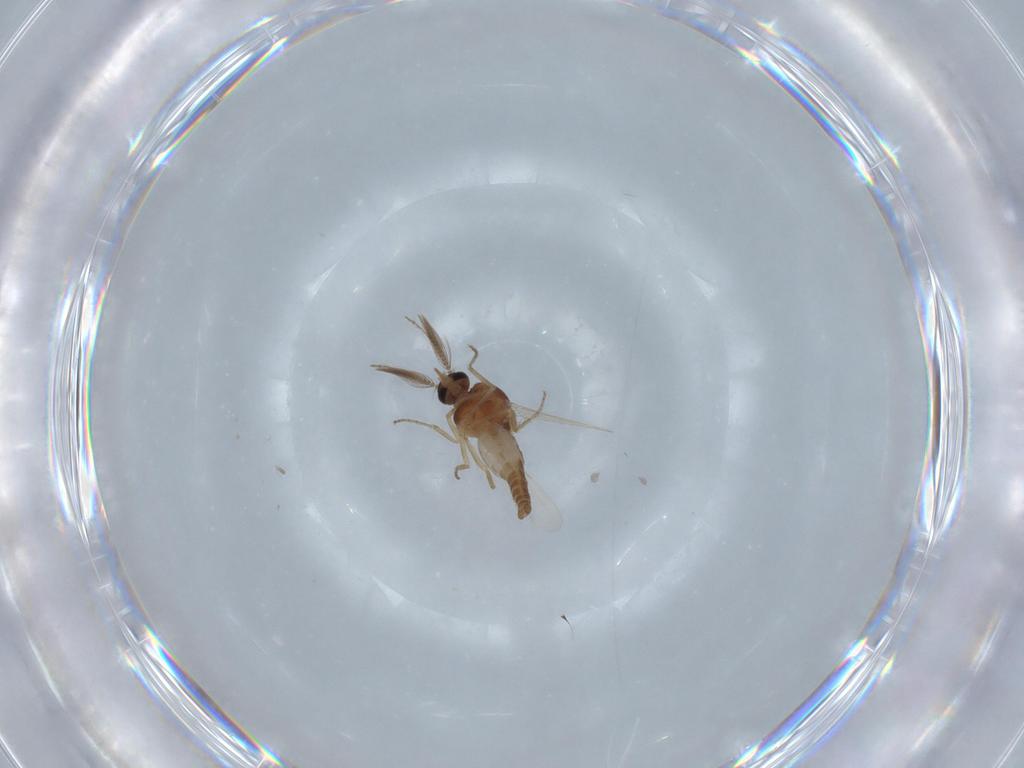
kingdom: Animalia
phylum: Arthropoda
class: Insecta
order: Diptera
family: Ceratopogonidae
